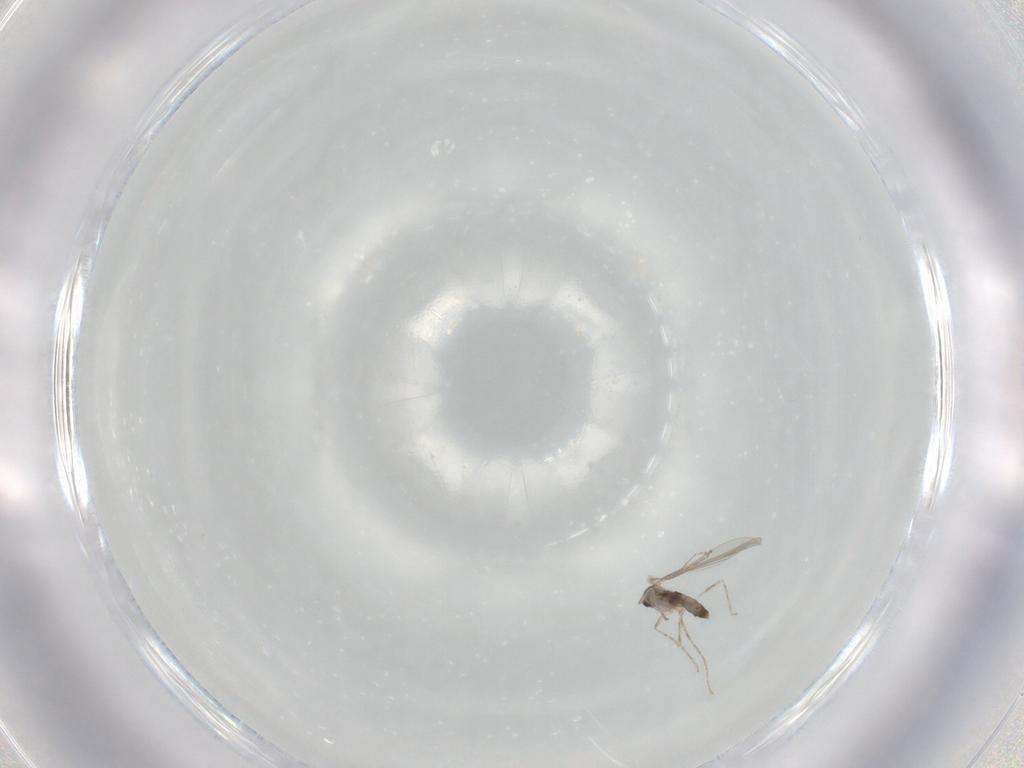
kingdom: Animalia
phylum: Arthropoda
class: Insecta
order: Diptera
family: Cecidomyiidae
